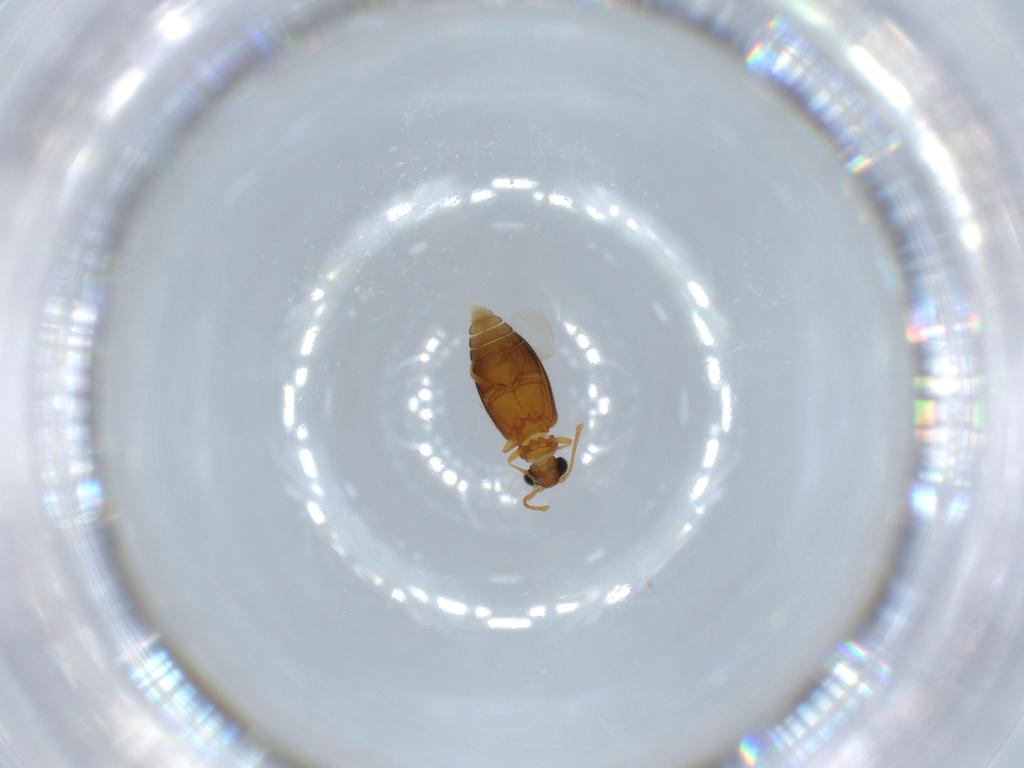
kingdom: Animalia
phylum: Arthropoda
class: Insecta
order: Coleoptera
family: Aderidae
